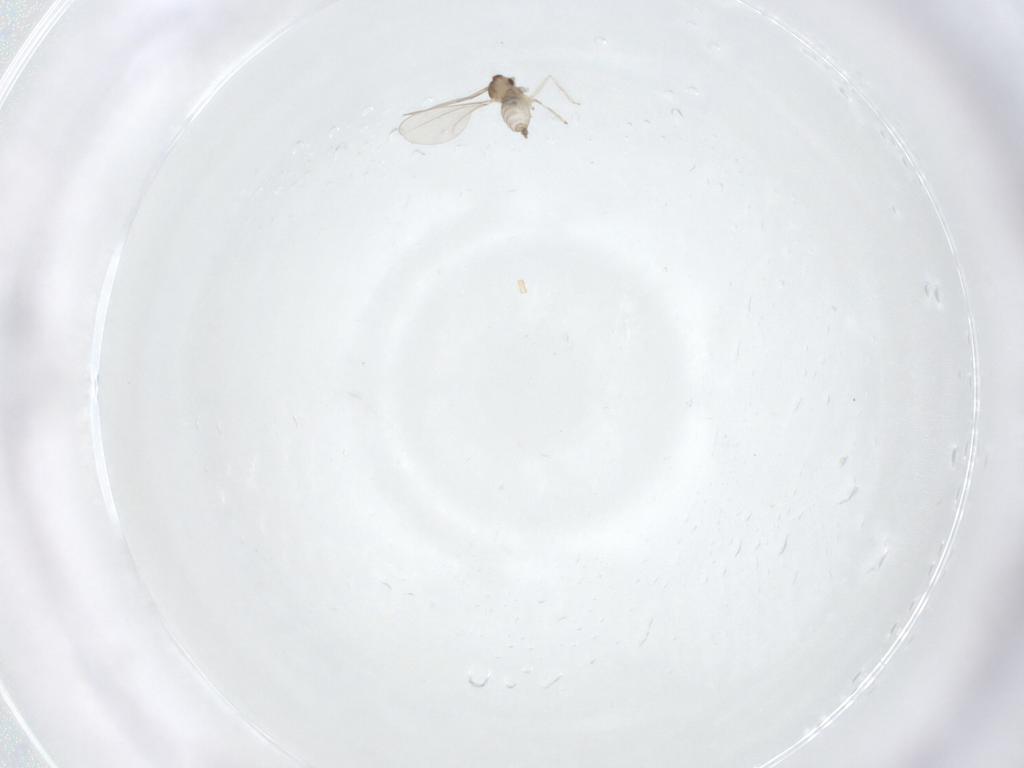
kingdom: Animalia
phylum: Arthropoda
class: Insecta
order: Diptera
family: Cecidomyiidae
